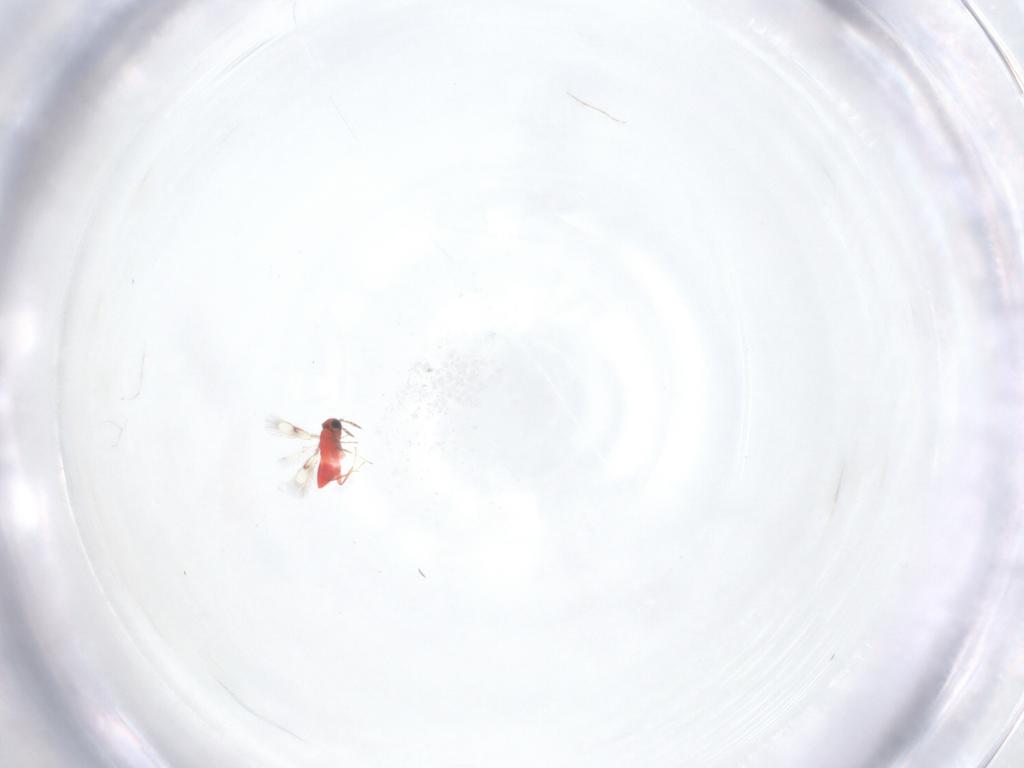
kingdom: Animalia
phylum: Arthropoda
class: Insecta
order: Hymenoptera
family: Trichogrammatidae
